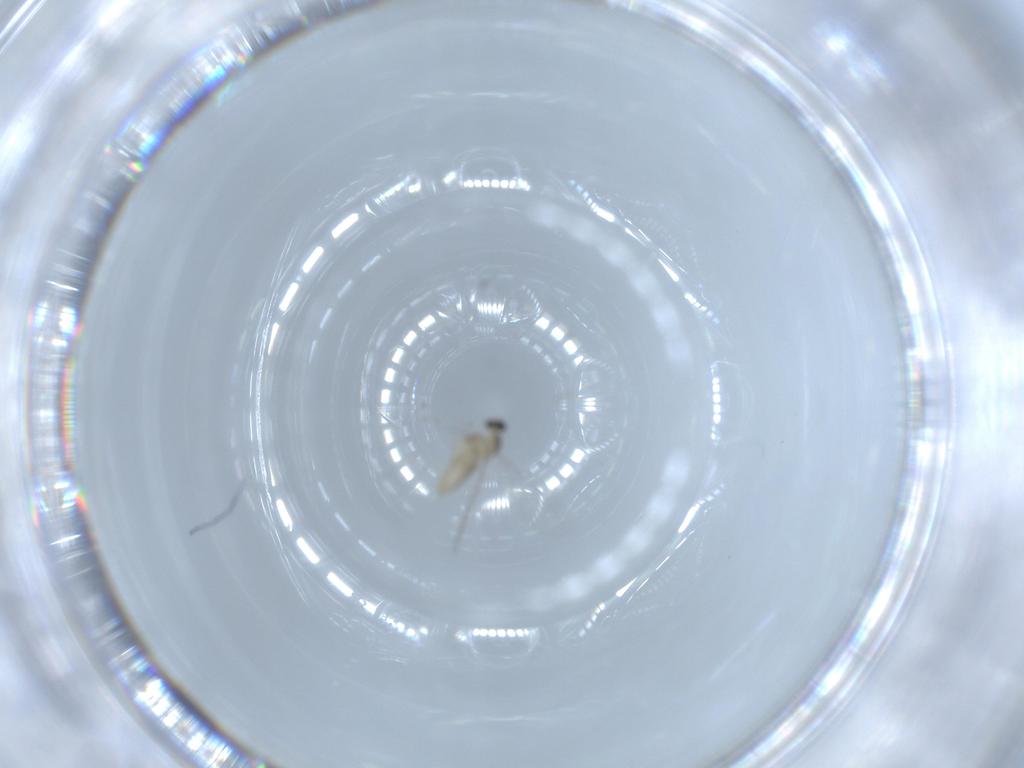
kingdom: Animalia
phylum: Arthropoda
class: Insecta
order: Diptera
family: Cecidomyiidae
